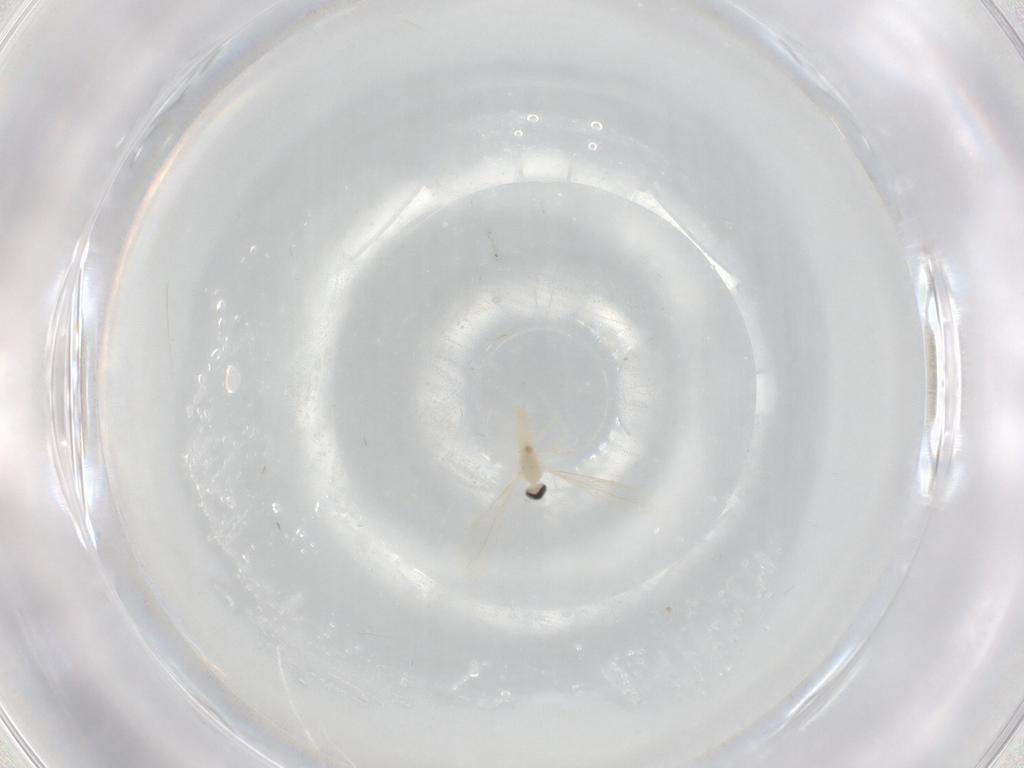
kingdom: Animalia
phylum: Arthropoda
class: Insecta
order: Diptera
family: Cecidomyiidae
